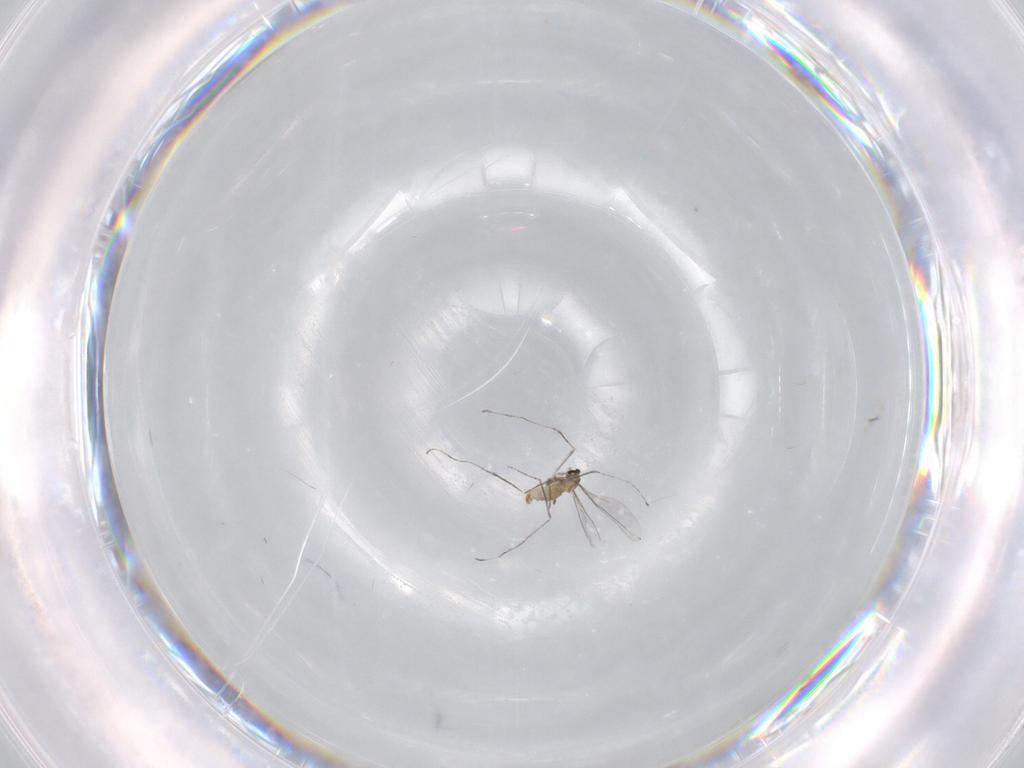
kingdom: Animalia
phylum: Arthropoda
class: Insecta
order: Diptera
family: Psychodidae
